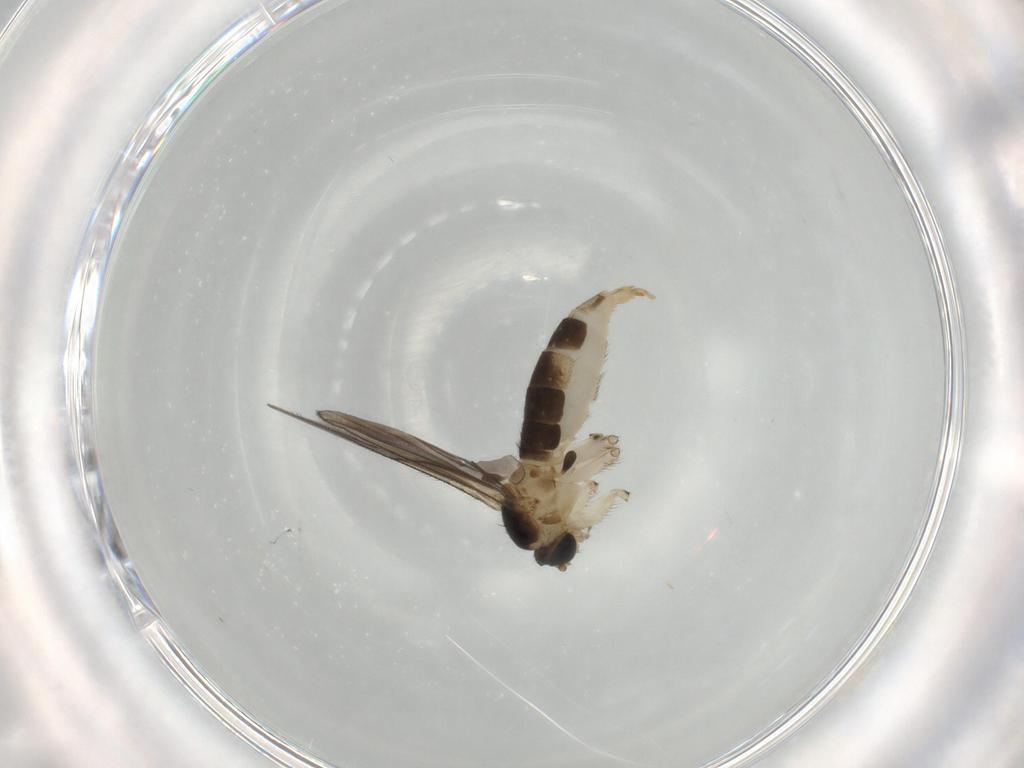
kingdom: Animalia
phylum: Arthropoda
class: Insecta
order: Diptera
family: Sciaridae
